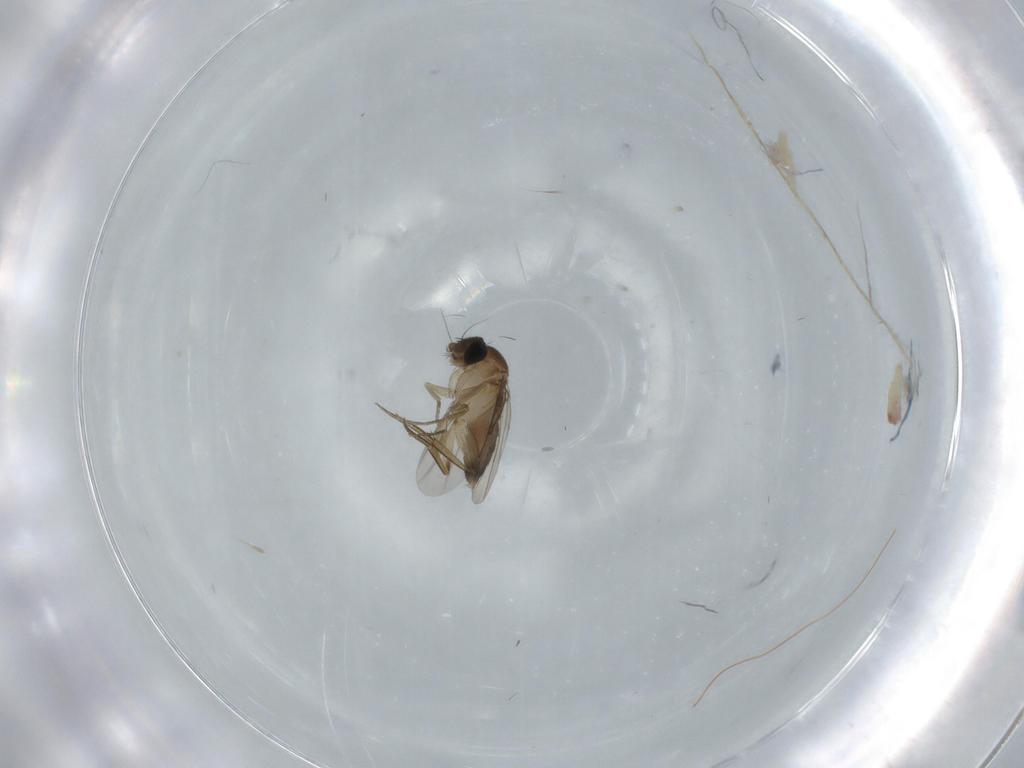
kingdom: Animalia
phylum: Arthropoda
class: Insecta
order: Diptera
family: Phoridae
